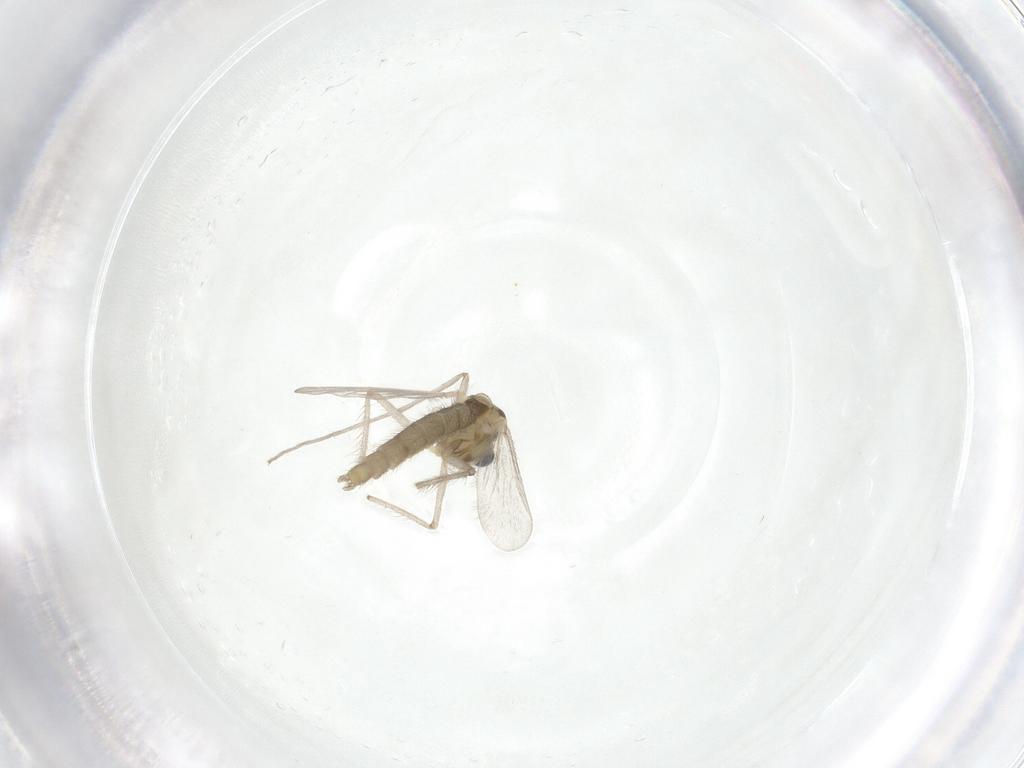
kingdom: Animalia
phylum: Arthropoda
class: Insecta
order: Diptera
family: Chironomidae
